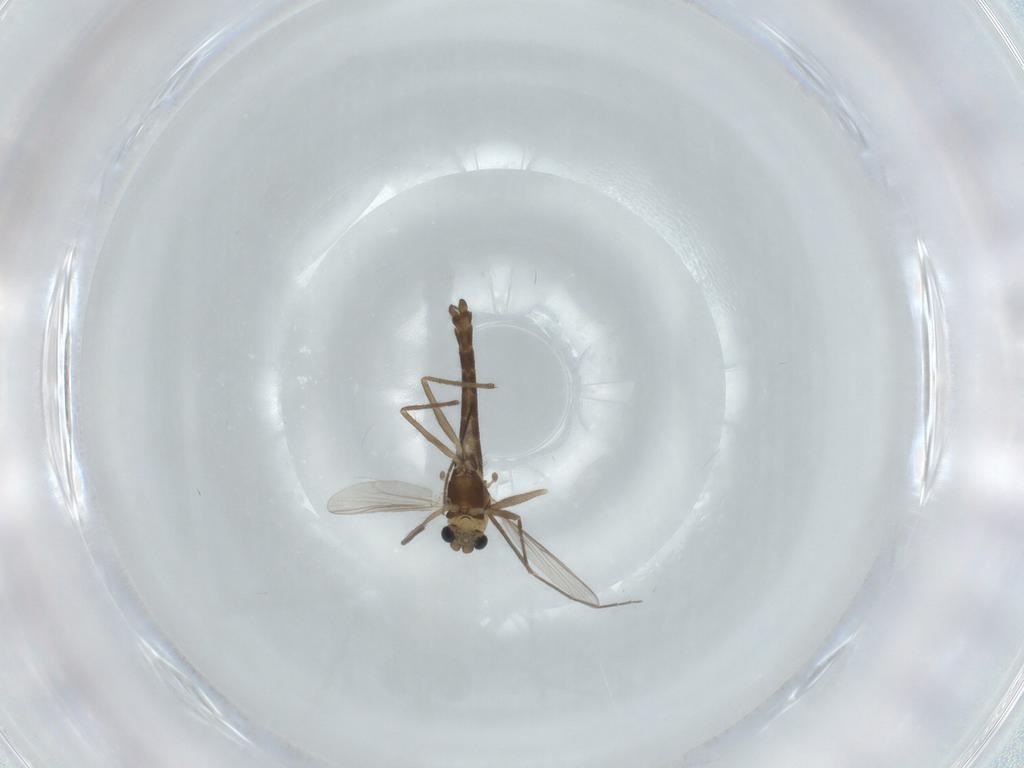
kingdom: Animalia
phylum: Arthropoda
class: Insecta
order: Diptera
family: Chironomidae
